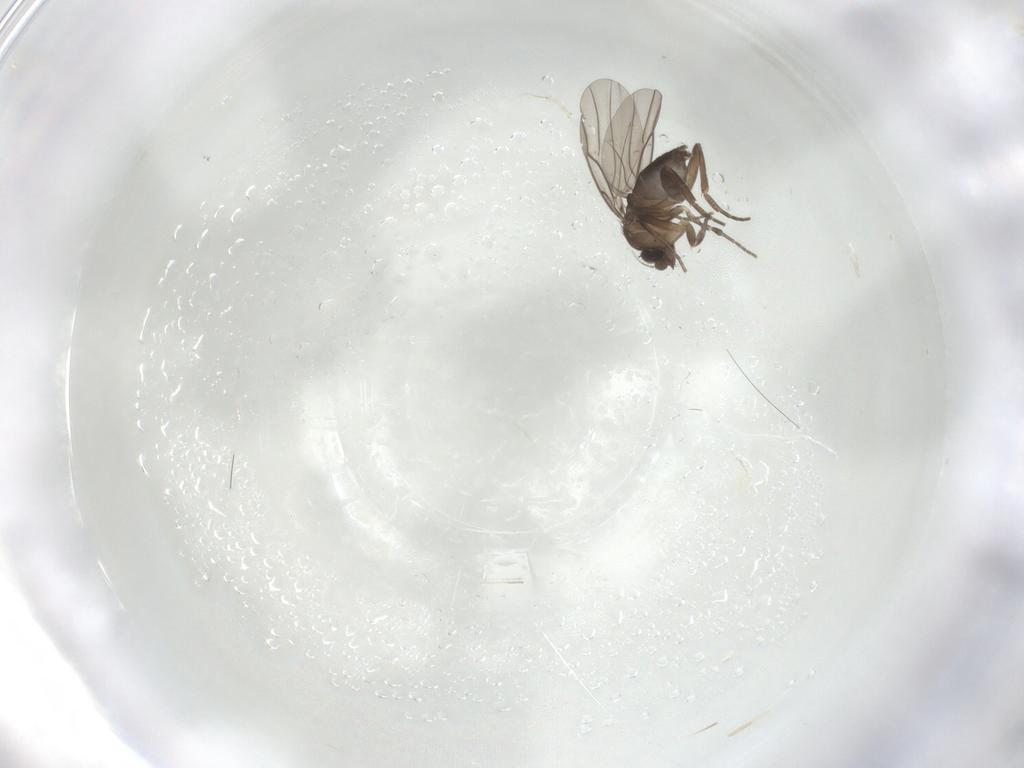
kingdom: Animalia
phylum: Arthropoda
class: Insecta
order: Diptera
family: Phoridae
